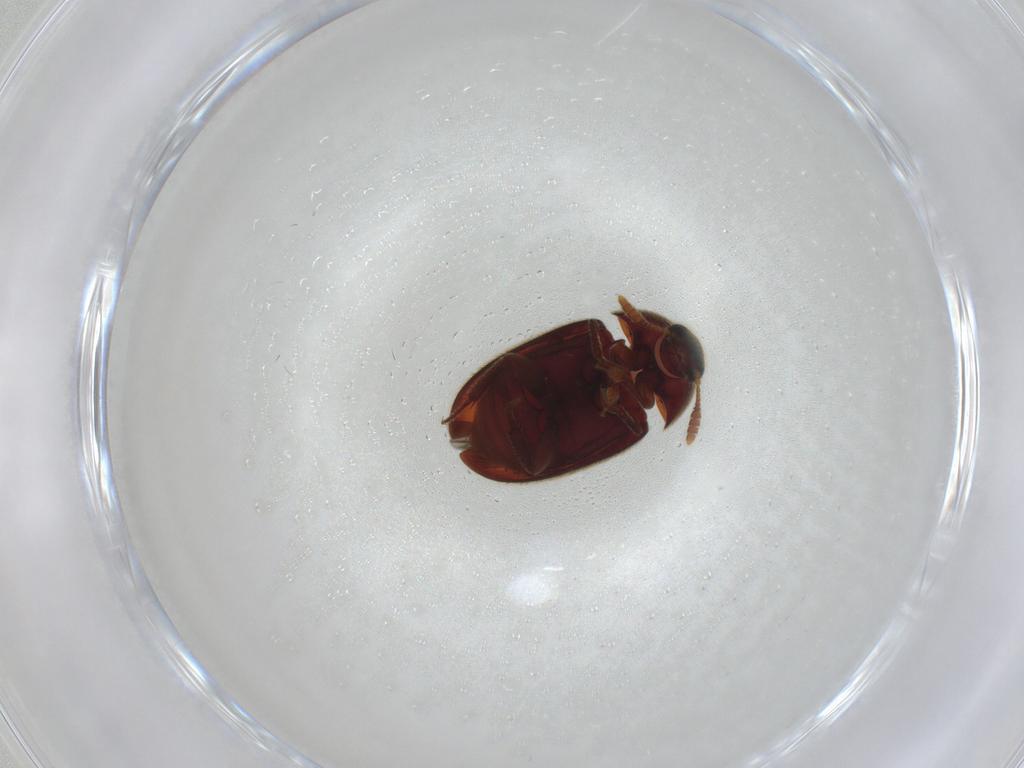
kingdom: Animalia
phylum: Arthropoda
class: Insecta
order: Coleoptera
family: Leiodidae
